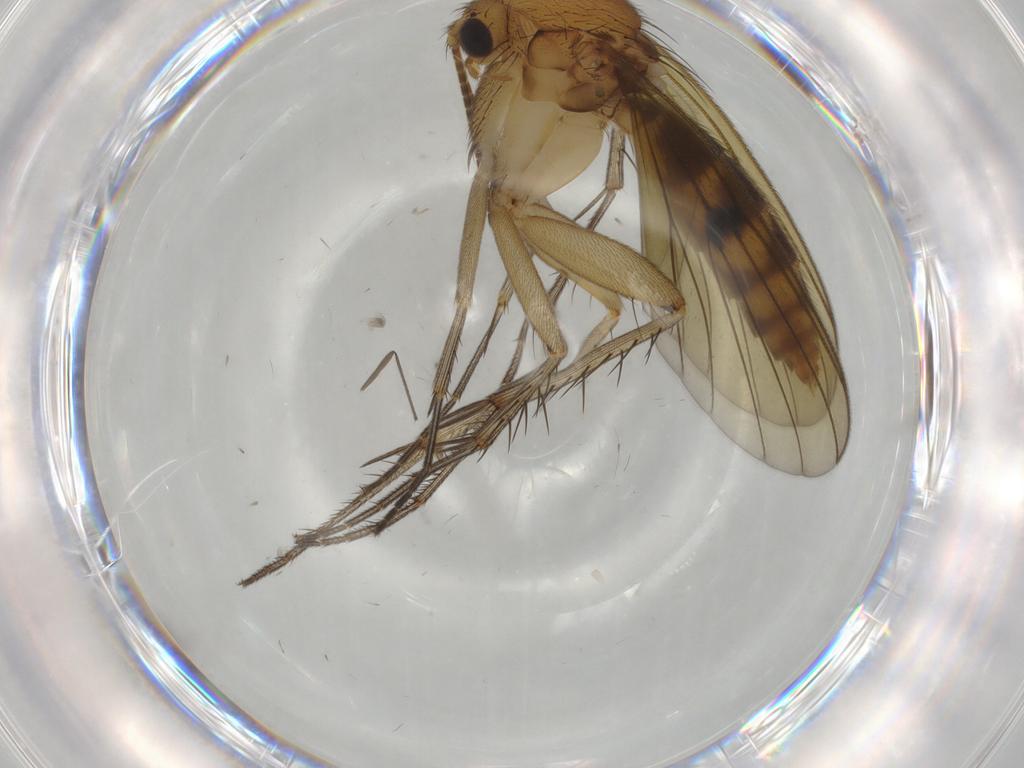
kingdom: Animalia
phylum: Arthropoda
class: Insecta
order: Diptera
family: Mycetophilidae
